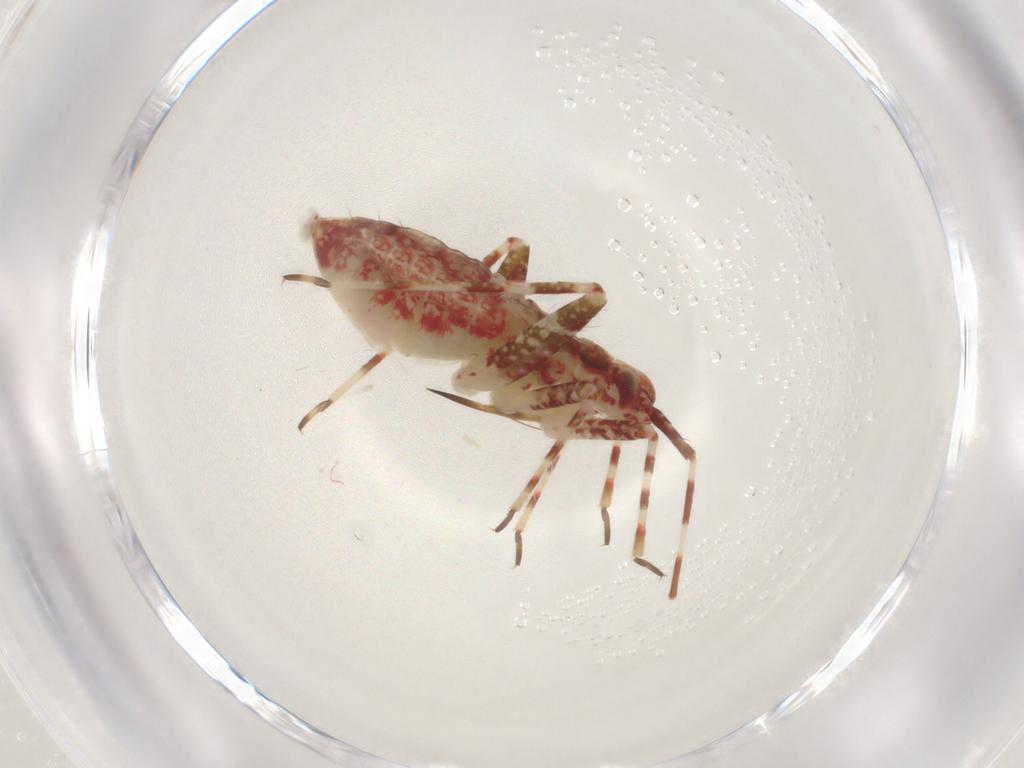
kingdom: Animalia
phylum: Arthropoda
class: Insecta
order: Hemiptera
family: Miridae
